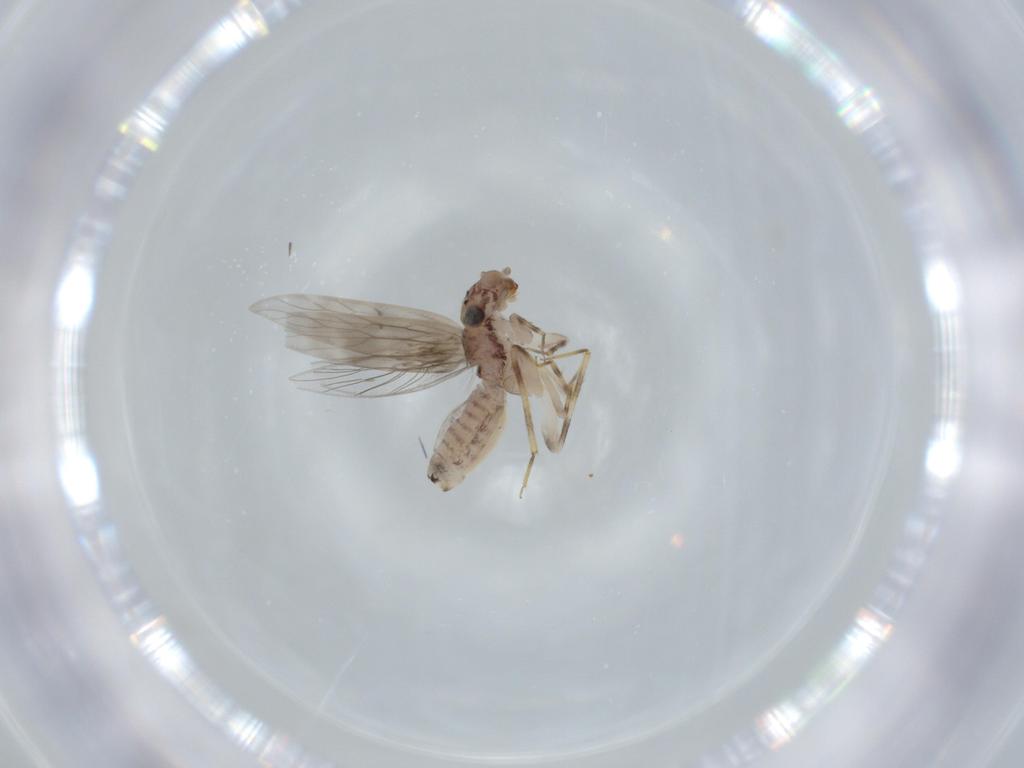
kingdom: Animalia
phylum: Arthropoda
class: Insecta
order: Psocodea
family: Lepidopsocidae
